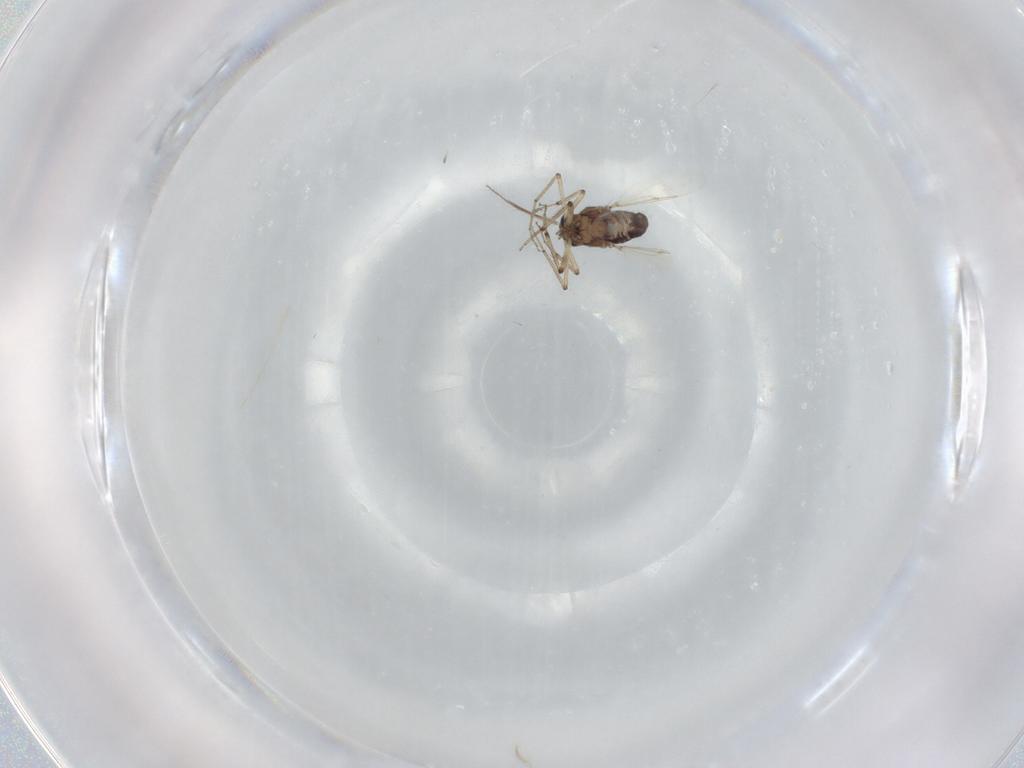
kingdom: Animalia
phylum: Arthropoda
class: Insecta
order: Diptera
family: Ceratopogonidae
